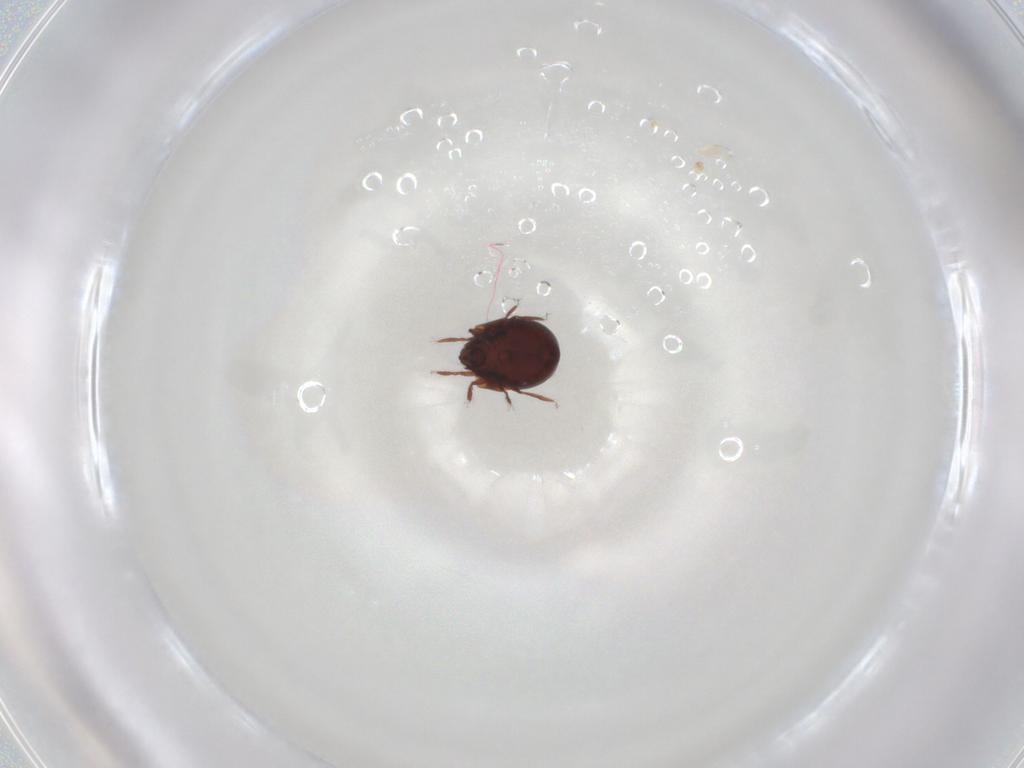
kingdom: Animalia
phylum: Arthropoda
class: Arachnida
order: Sarcoptiformes
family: Humerobatidae
